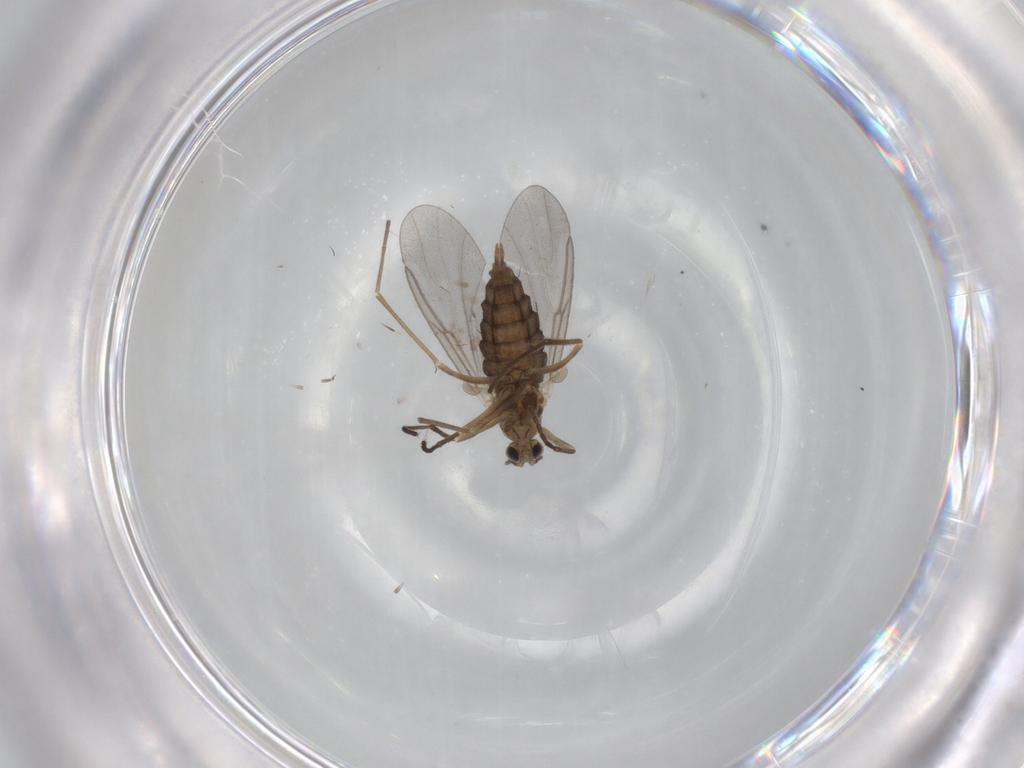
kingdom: Animalia
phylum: Arthropoda
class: Insecta
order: Diptera
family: Cecidomyiidae
